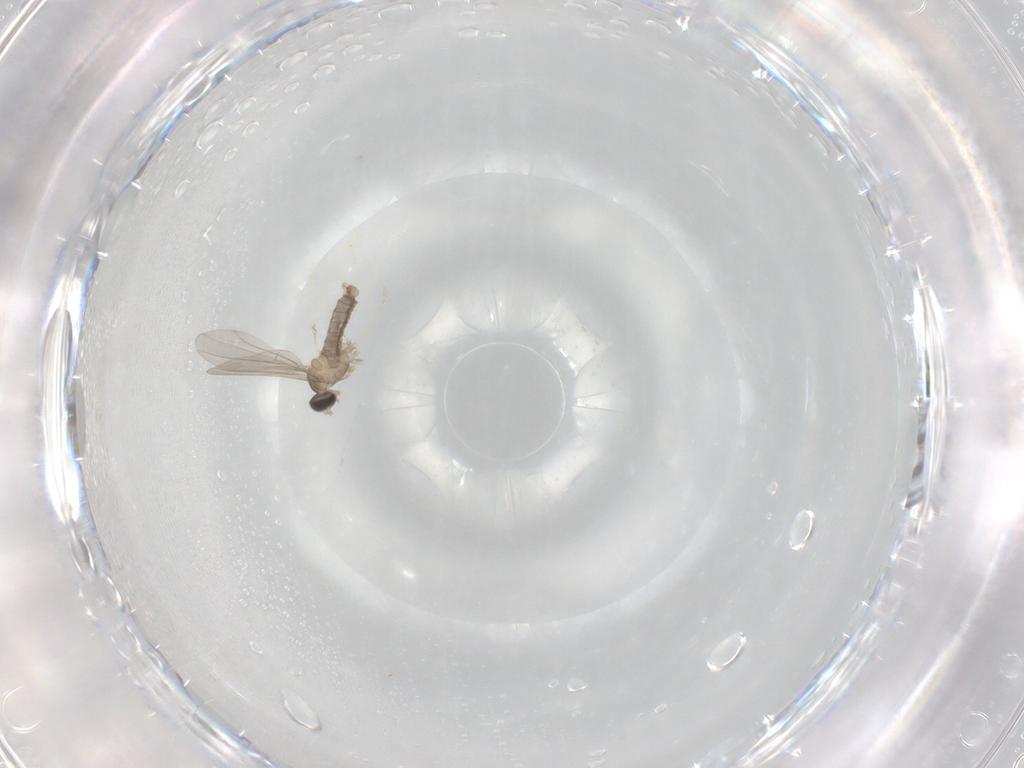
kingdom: Animalia
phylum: Arthropoda
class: Insecta
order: Diptera
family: Cecidomyiidae
